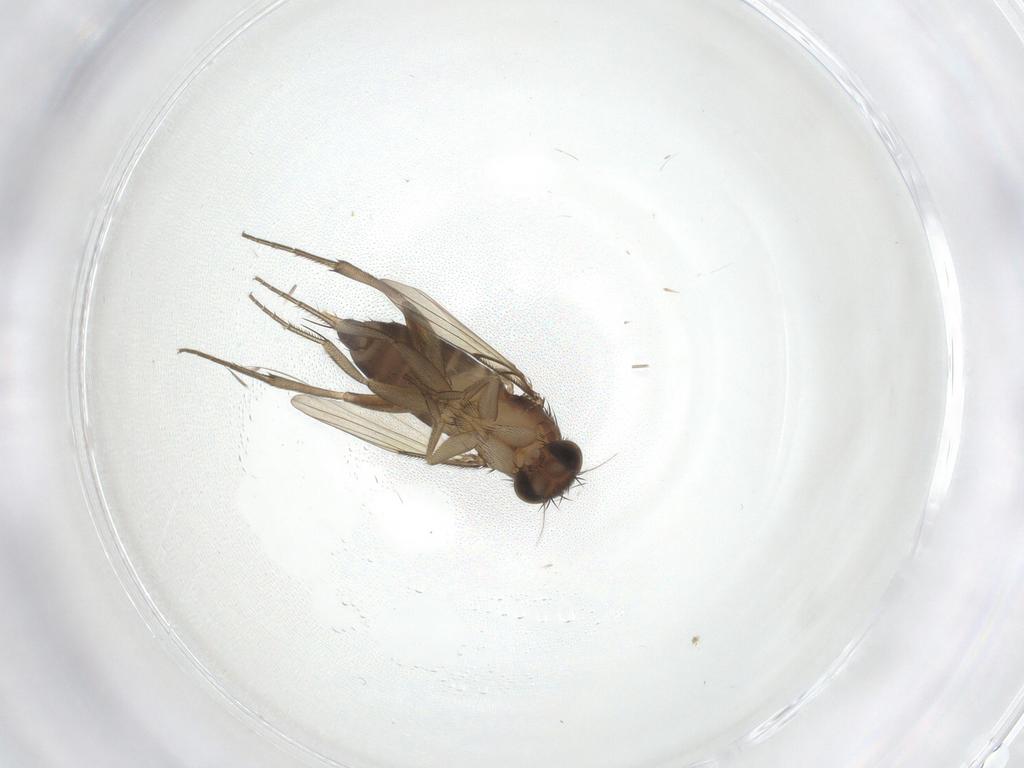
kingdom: Animalia
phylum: Arthropoda
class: Insecta
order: Diptera
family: Phoridae
